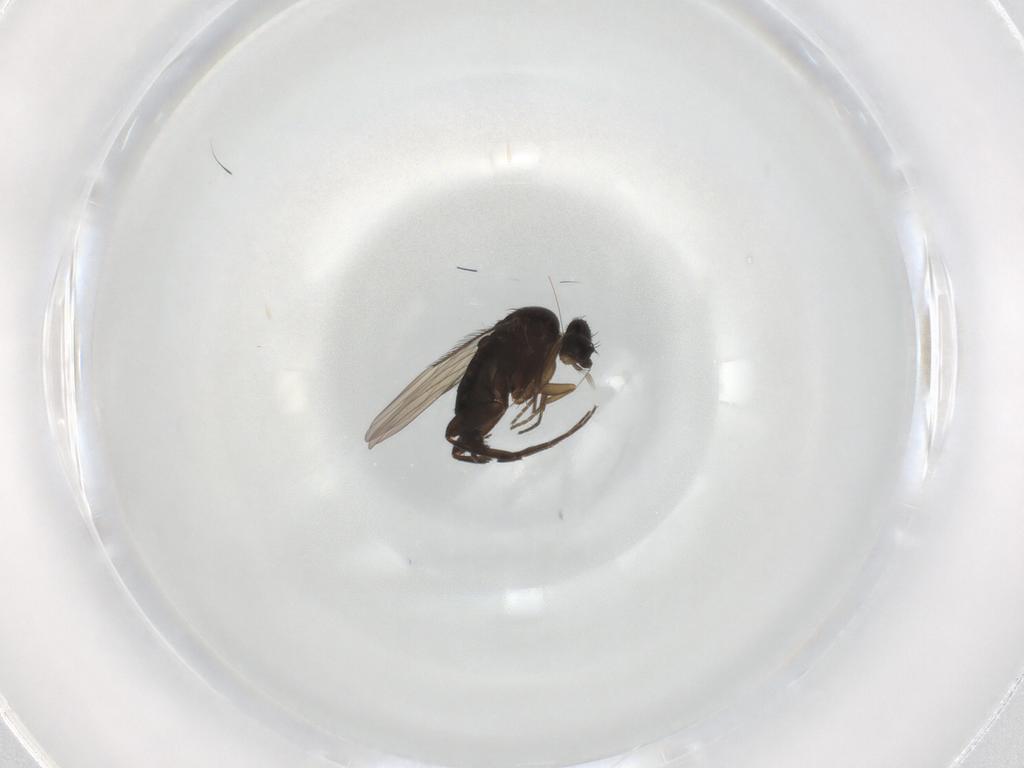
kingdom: Animalia
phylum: Arthropoda
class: Insecta
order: Diptera
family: Phoridae
